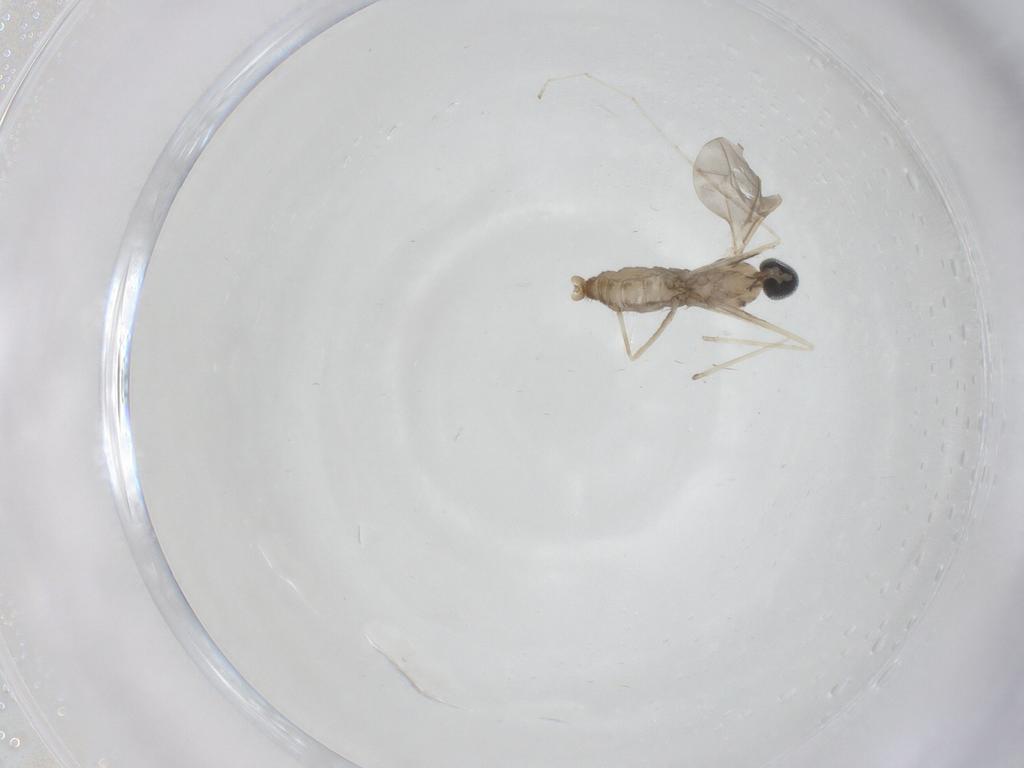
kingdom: Animalia
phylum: Arthropoda
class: Insecta
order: Diptera
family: Cecidomyiidae
